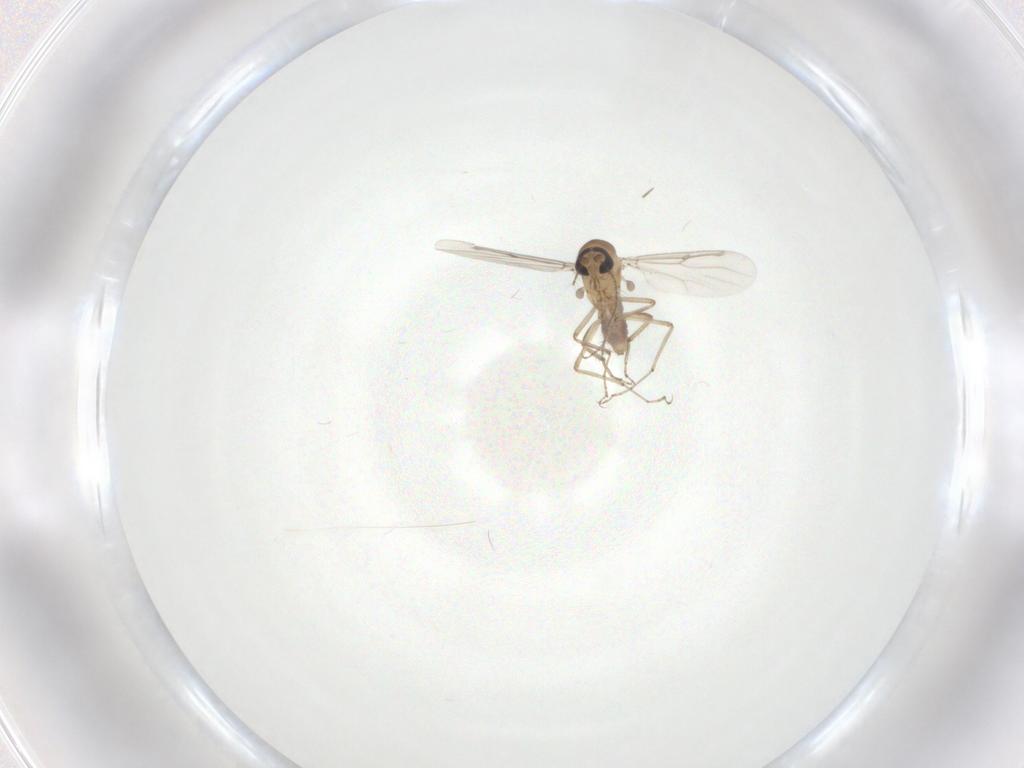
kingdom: Animalia
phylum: Arthropoda
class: Insecta
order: Diptera
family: Ceratopogonidae
